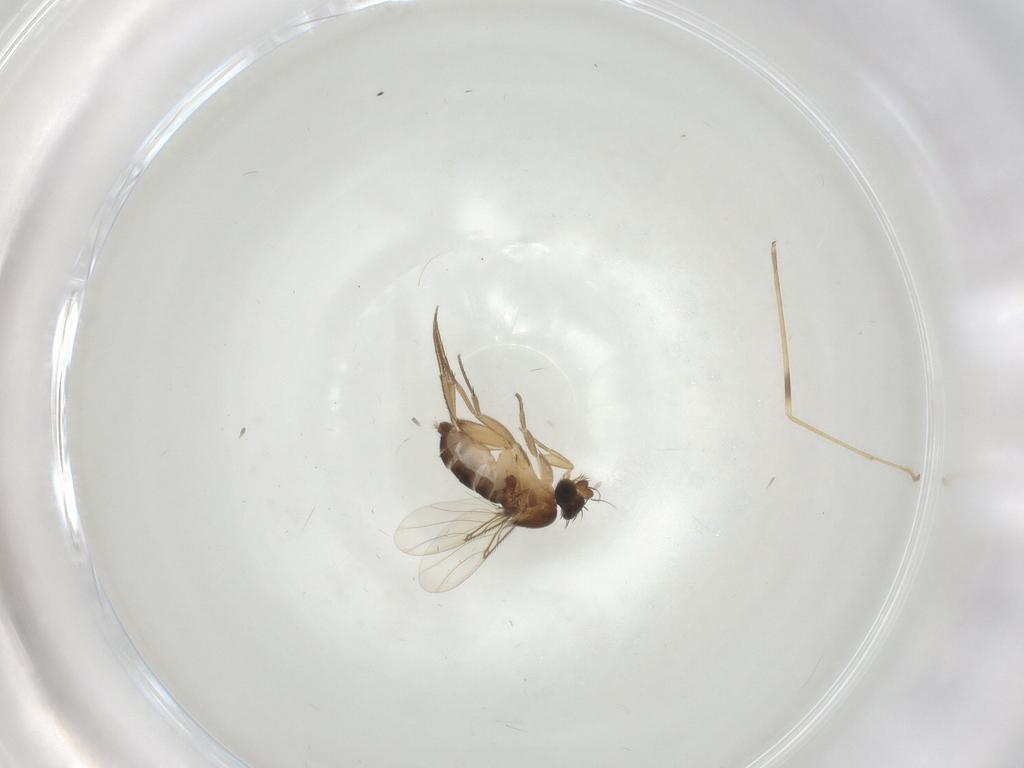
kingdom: Animalia
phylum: Arthropoda
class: Insecta
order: Diptera
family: Phoridae
